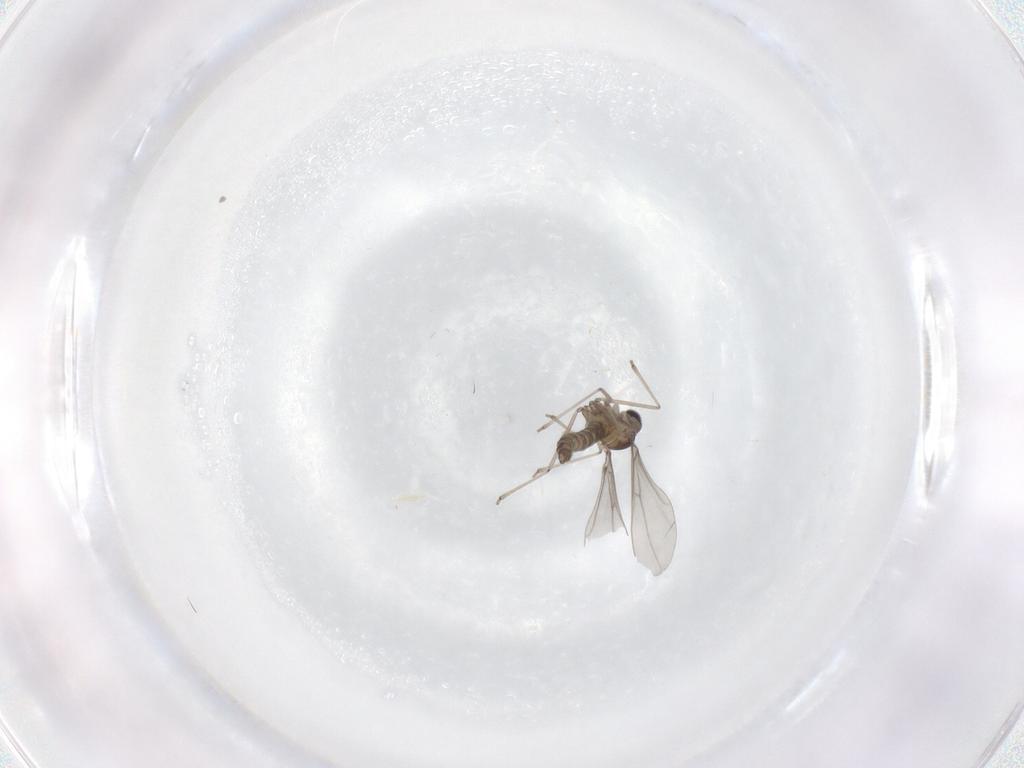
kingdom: Animalia
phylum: Arthropoda
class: Insecta
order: Diptera
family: Cecidomyiidae
